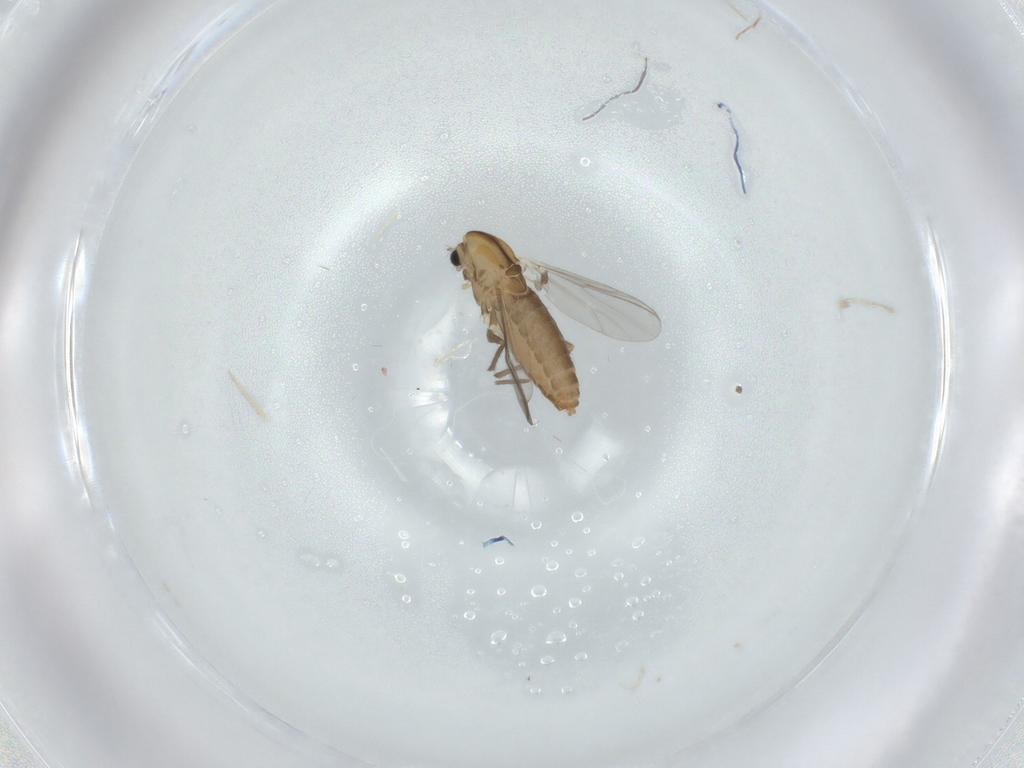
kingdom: Animalia
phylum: Arthropoda
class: Insecta
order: Diptera
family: Chironomidae
